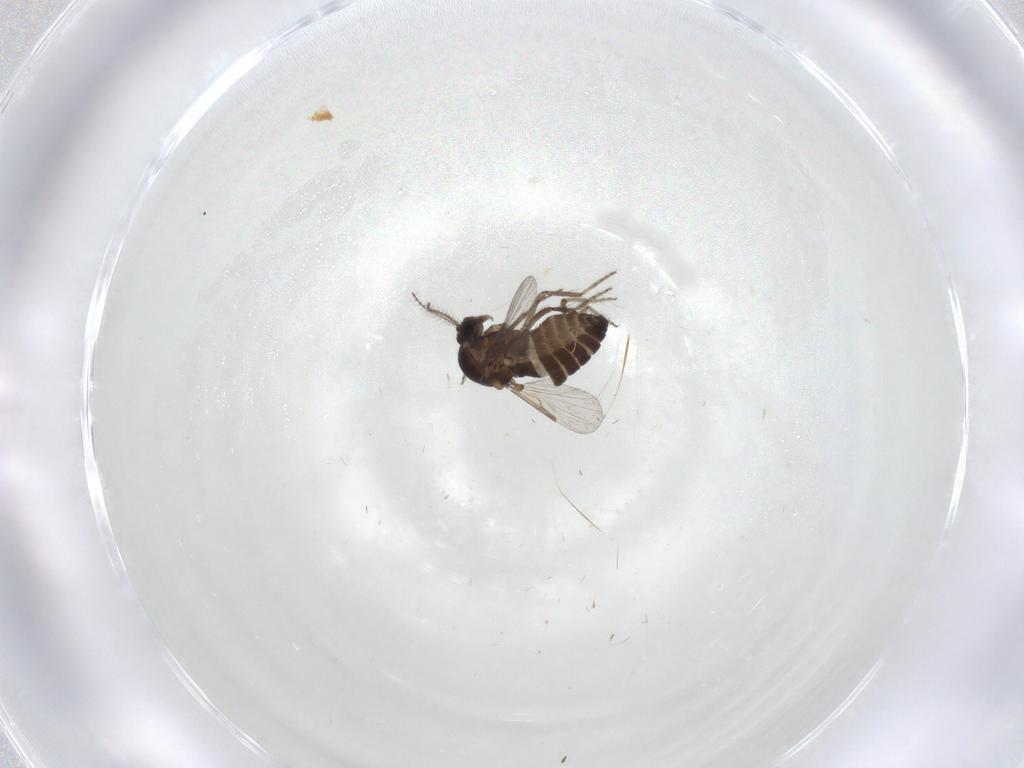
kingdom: Animalia
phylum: Arthropoda
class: Insecta
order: Diptera
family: Ceratopogonidae
